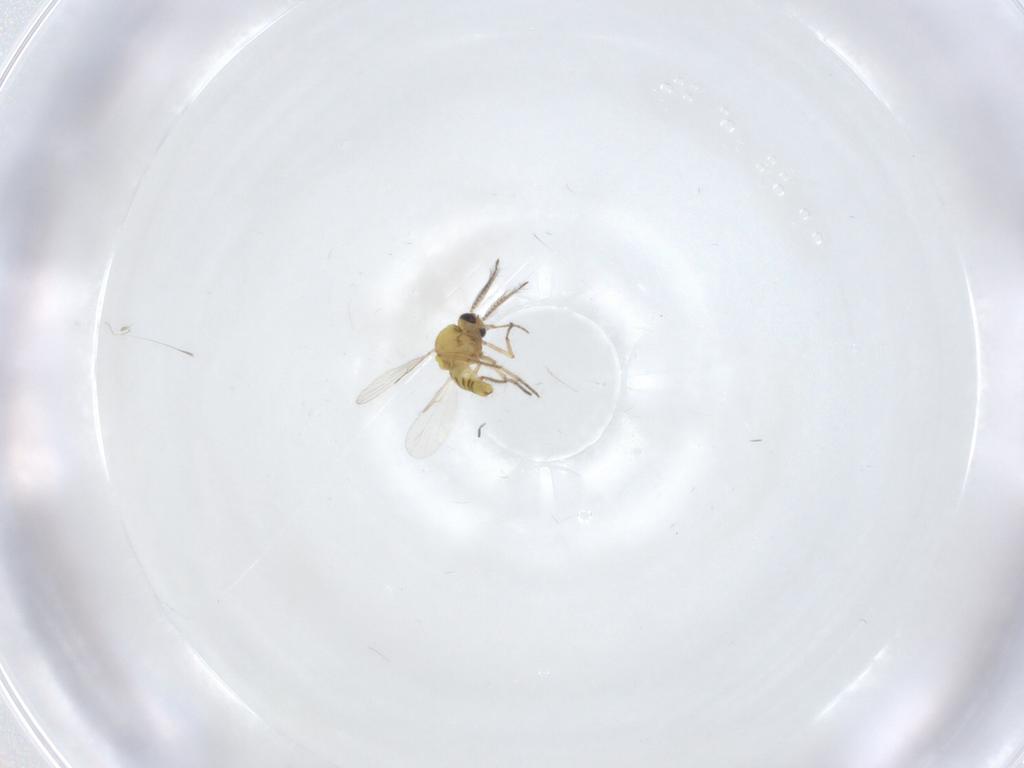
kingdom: Animalia
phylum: Arthropoda
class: Insecta
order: Diptera
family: Ceratopogonidae
